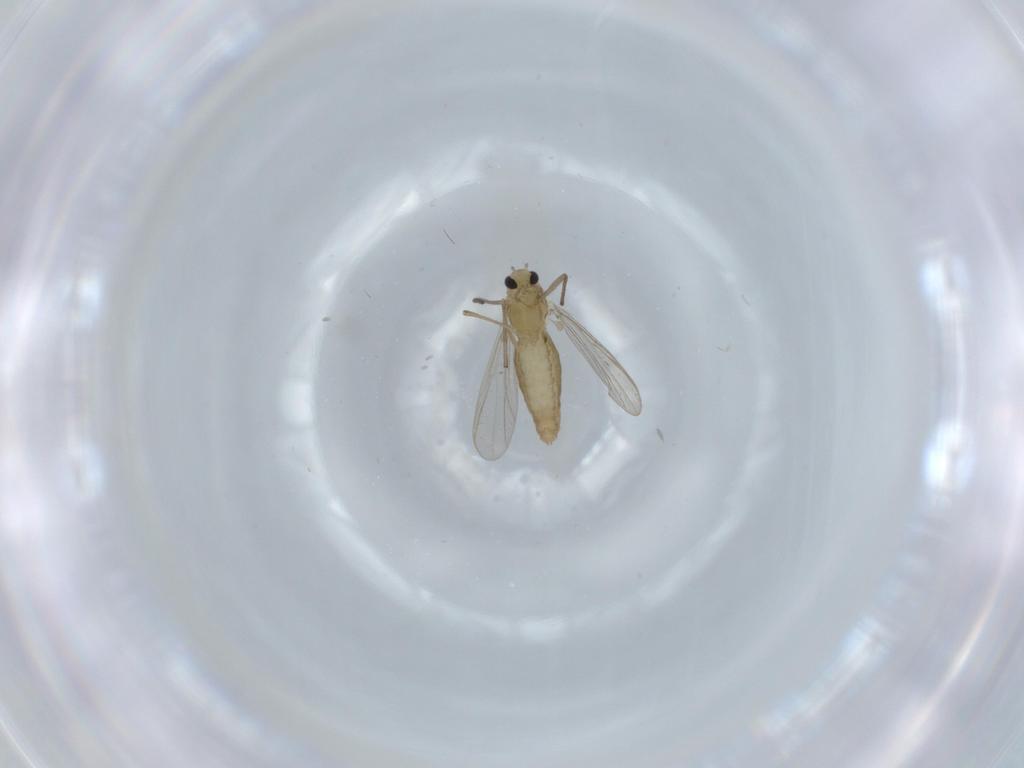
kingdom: Animalia
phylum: Arthropoda
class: Insecta
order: Diptera
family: Chironomidae
